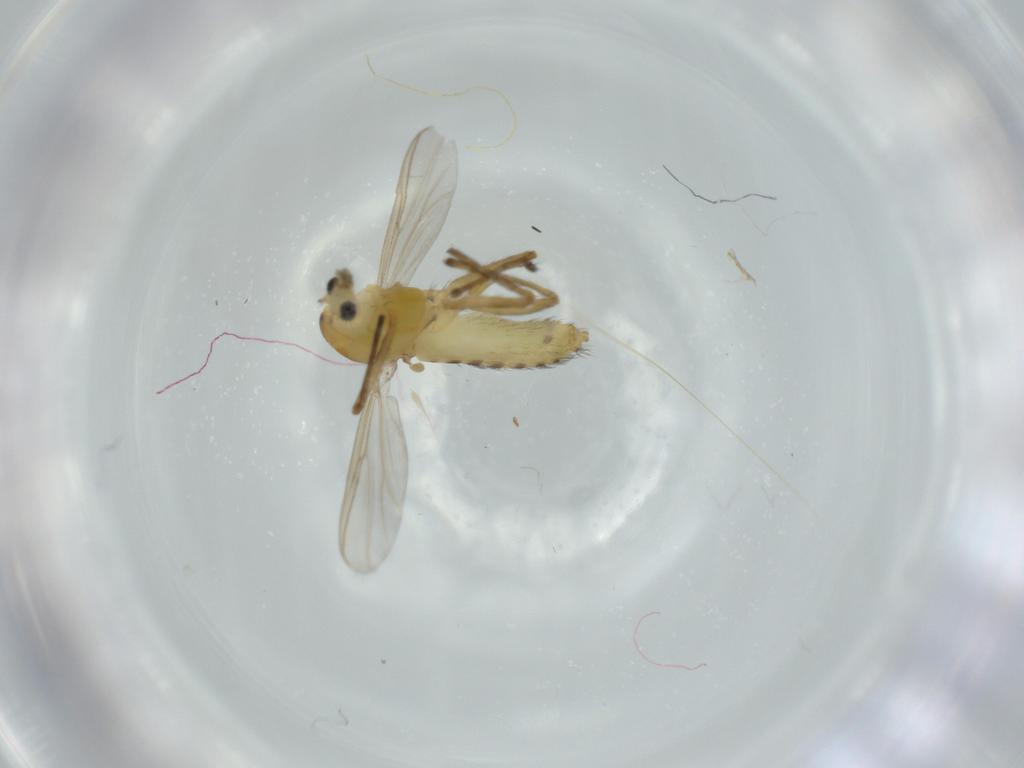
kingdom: Animalia
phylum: Arthropoda
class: Insecta
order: Diptera
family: Chironomidae
